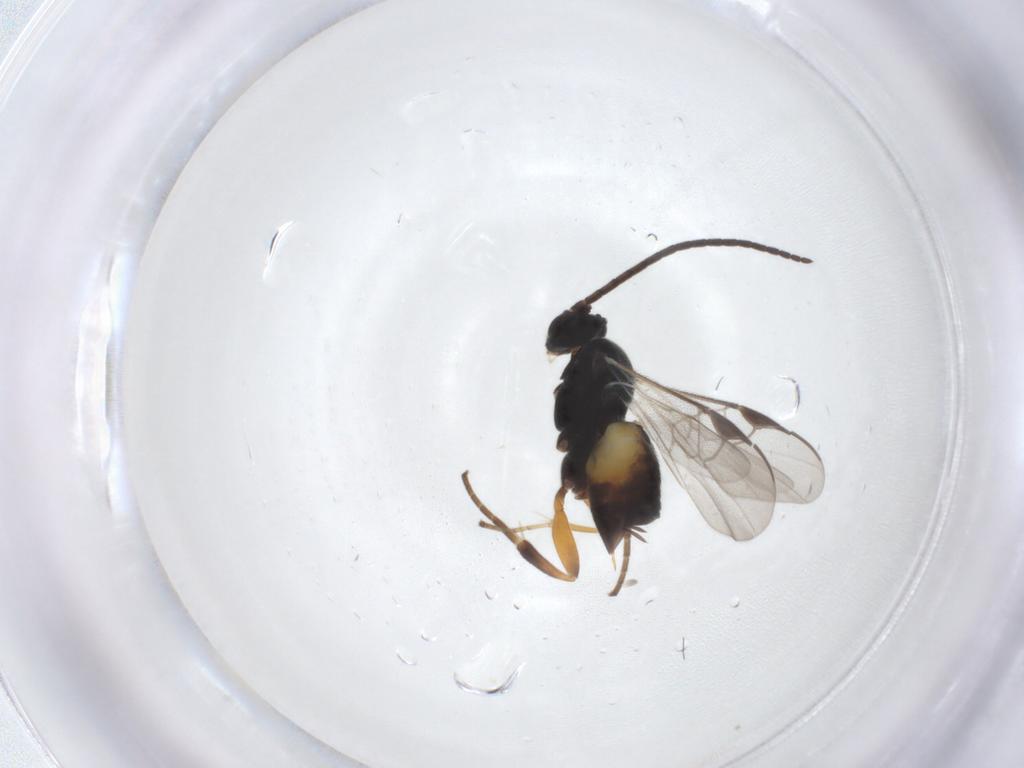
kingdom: Animalia
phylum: Arthropoda
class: Insecta
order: Hymenoptera
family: Braconidae
